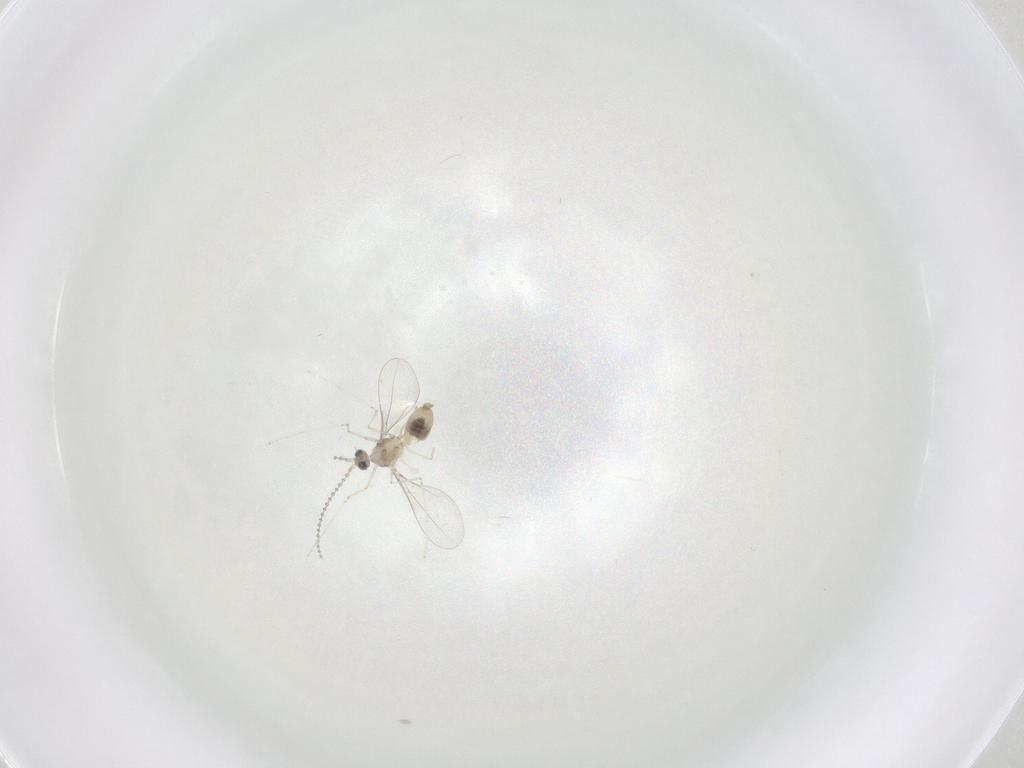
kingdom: Animalia
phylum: Arthropoda
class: Insecta
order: Diptera
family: Cecidomyiidae
